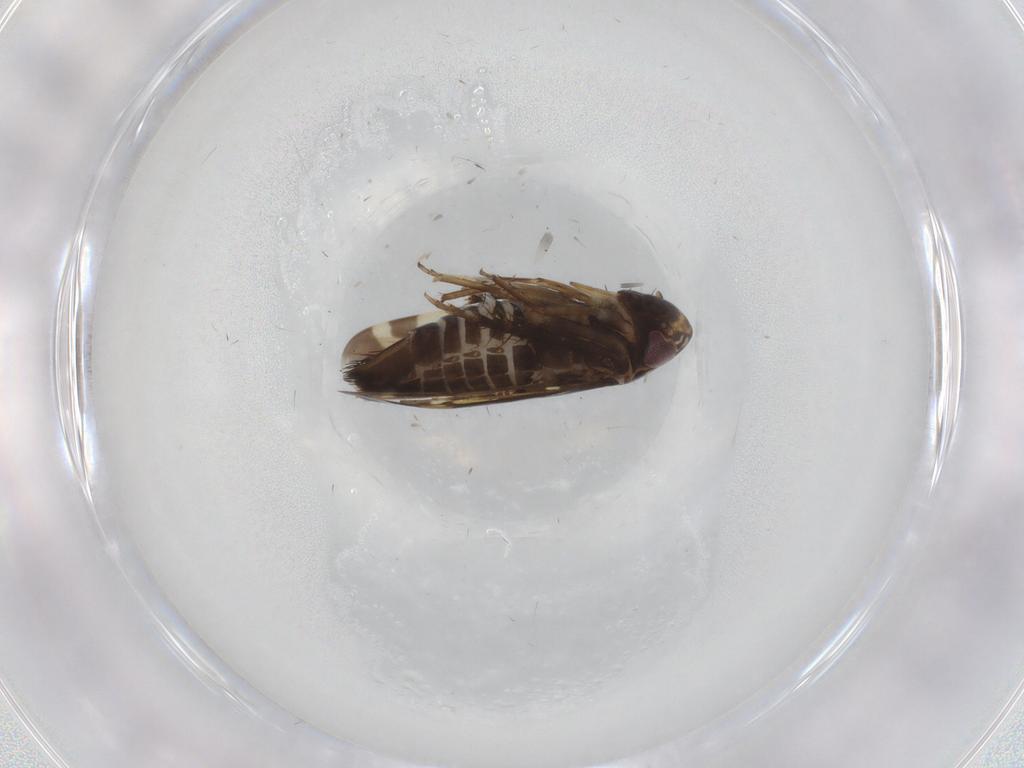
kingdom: Animalia
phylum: Arthropoda
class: Insecta
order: Hemiptera
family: Cicadellidae
